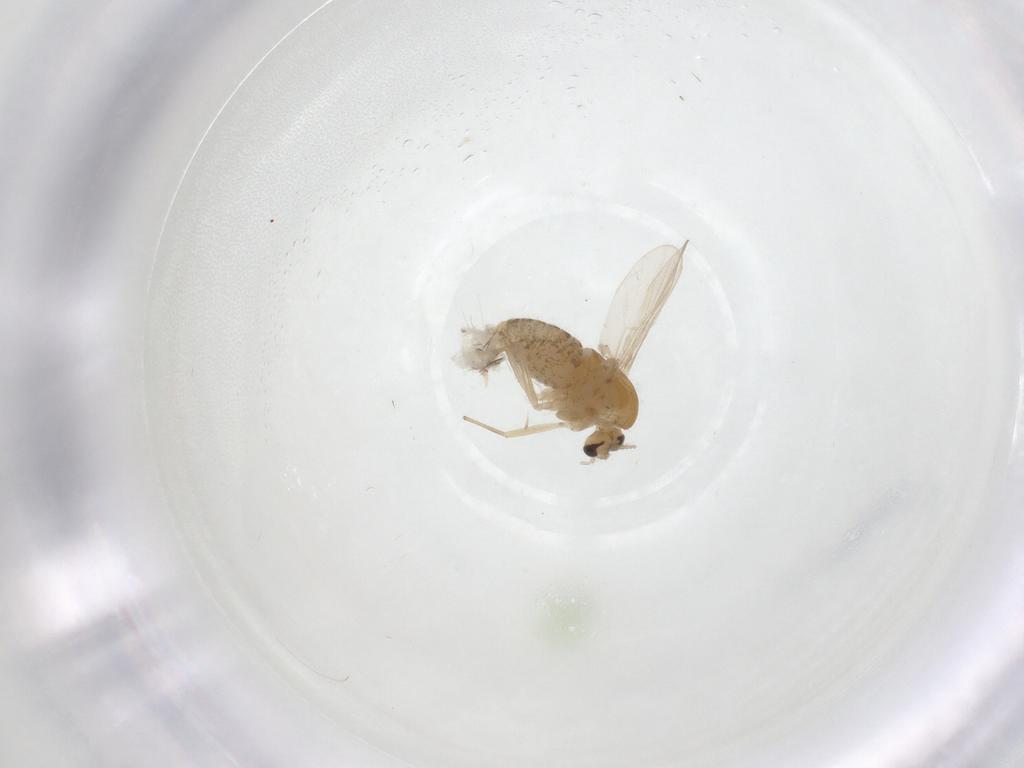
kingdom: Animalia
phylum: Arthropoda
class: Insecta
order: Diptera
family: Chironomidae
